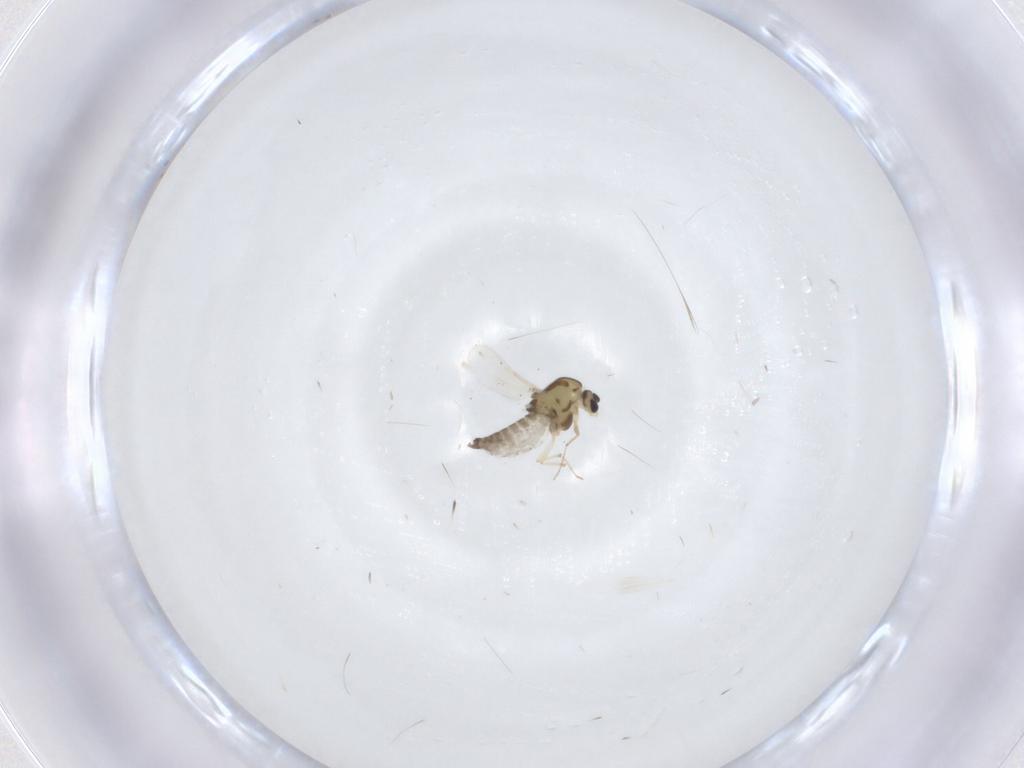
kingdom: Animalia
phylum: Arthropoda
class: Insecta
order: Diptera
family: Chironomidae
